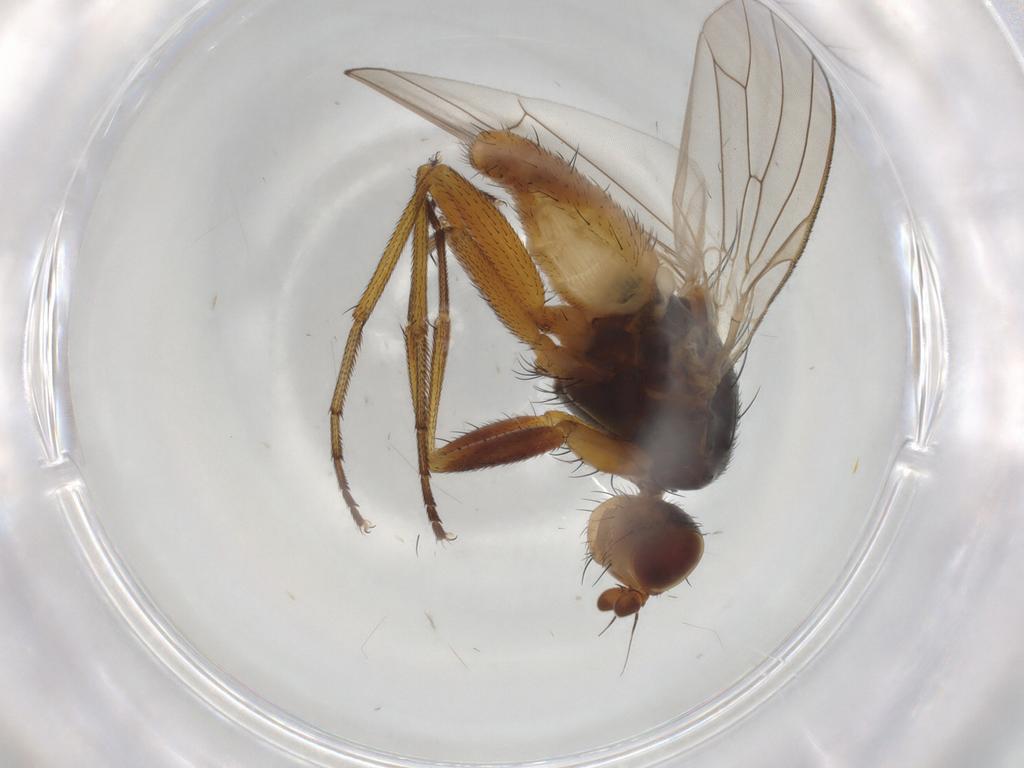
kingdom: Animalia
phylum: Arthropoda
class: Insecta
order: Diptera
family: Heleomyzidae
